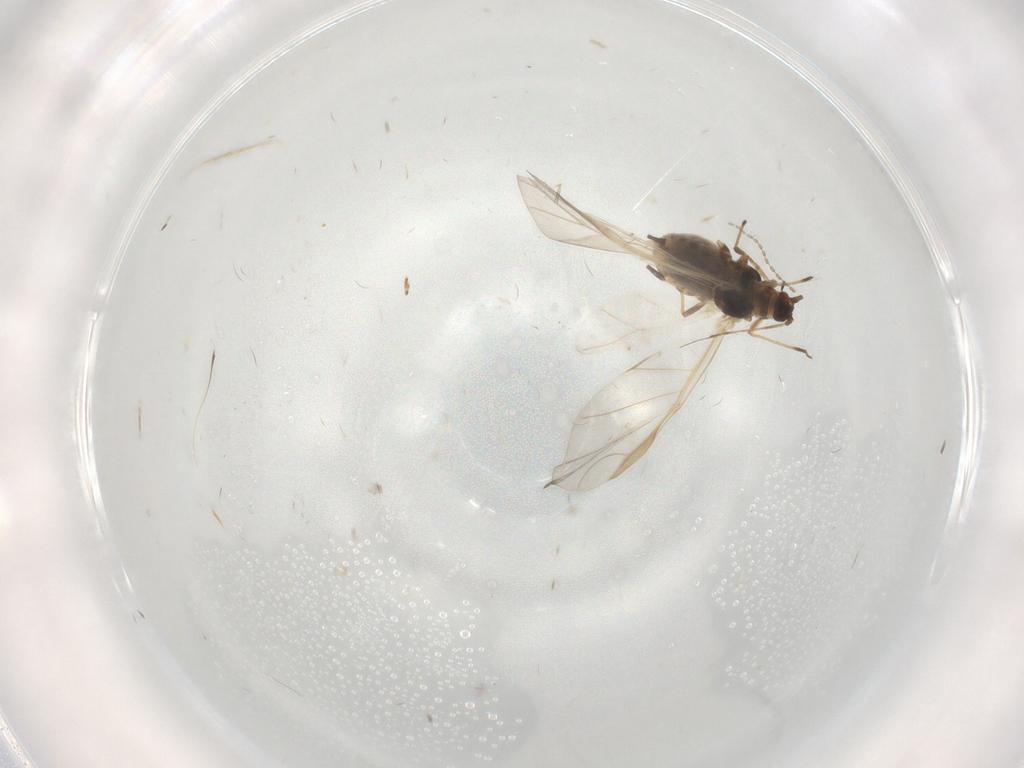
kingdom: Animalia
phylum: Arthropoda
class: Insecta
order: Hemiptera
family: Aphididae
